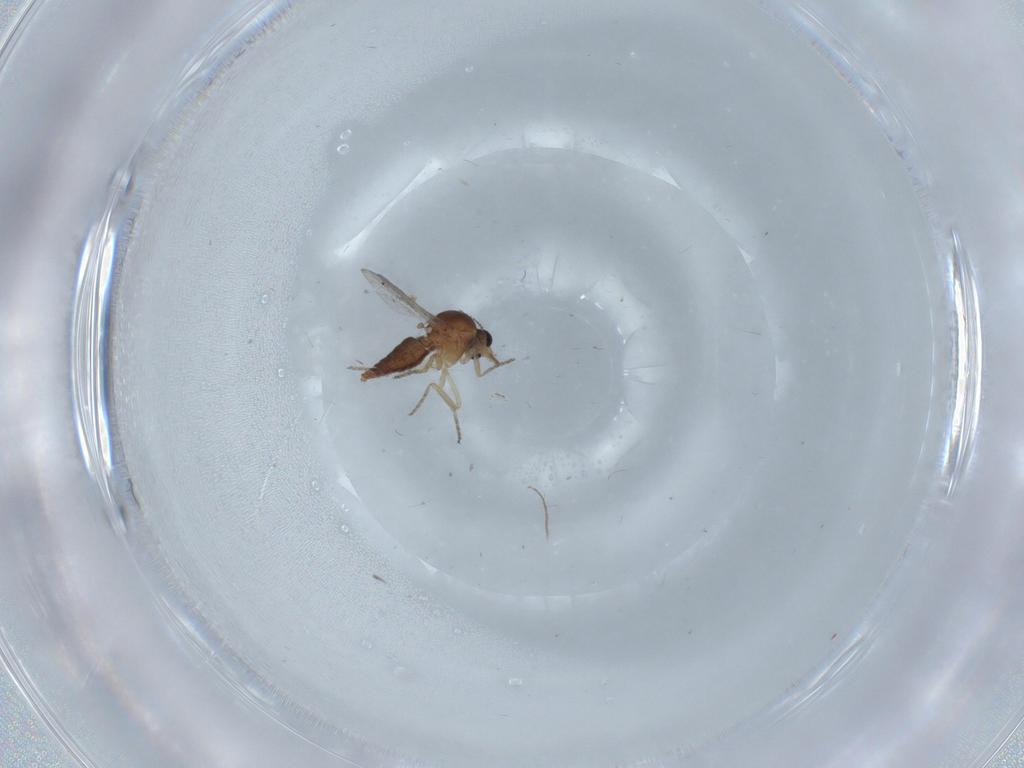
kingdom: Animalia
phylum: Arthropoda
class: Insecta
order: Diptera
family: Ceratopogonidae
